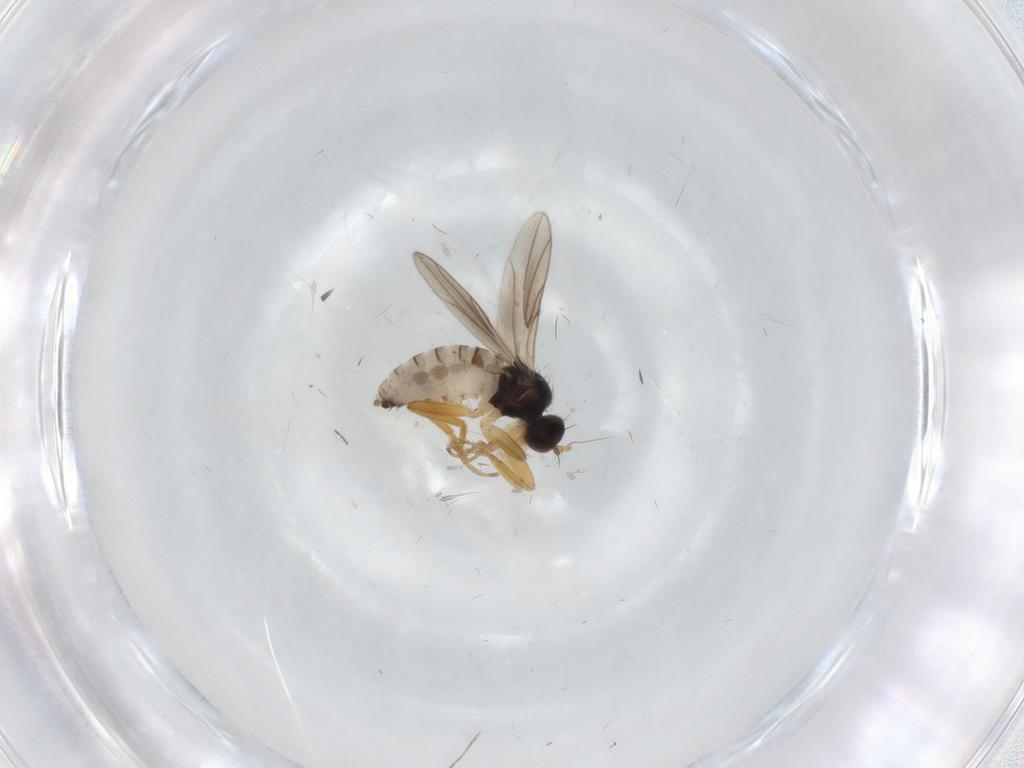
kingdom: Animalia
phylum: Arthropoda
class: Insecta
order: Diptera
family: Hybotidae
